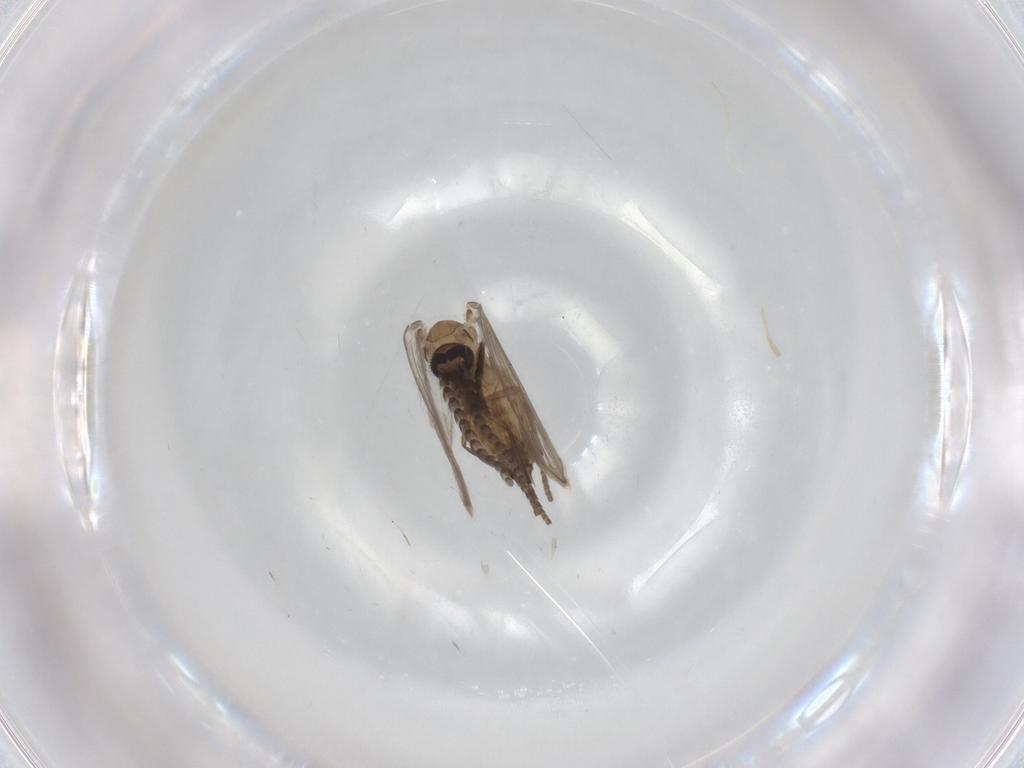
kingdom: Animalia
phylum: Arthropoda
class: Insecta
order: Diptera
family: Psychodidae
